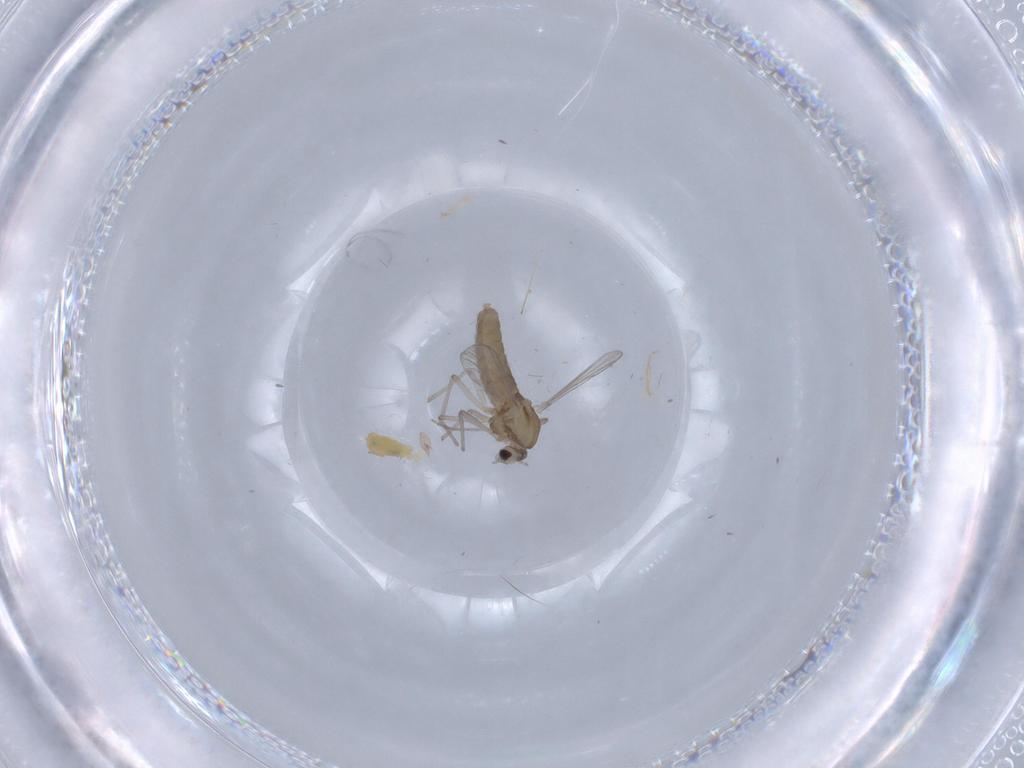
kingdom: Animalia
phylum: Arthropoda
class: Insecta
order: Diptera
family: Chironomidae
